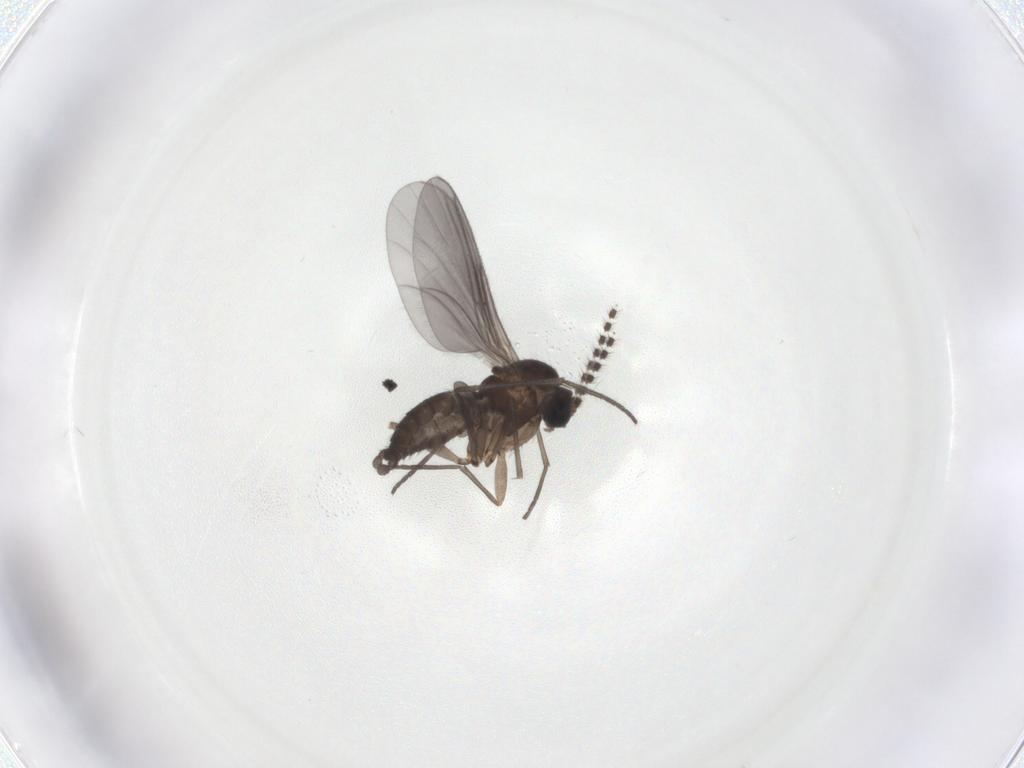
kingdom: Animalia
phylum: Arthropoda
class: Insecta
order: Diptera
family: Sciaridae
